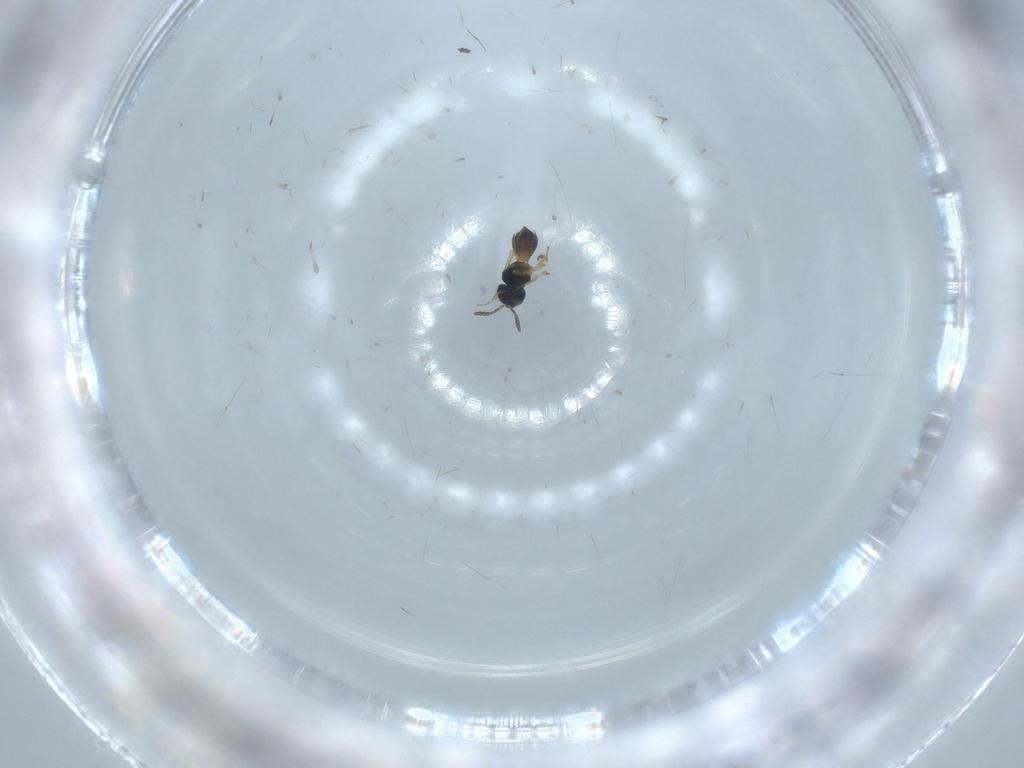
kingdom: Animalia
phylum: Arthropoda
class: Insecta
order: Hymenoptera
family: Scelionidae
